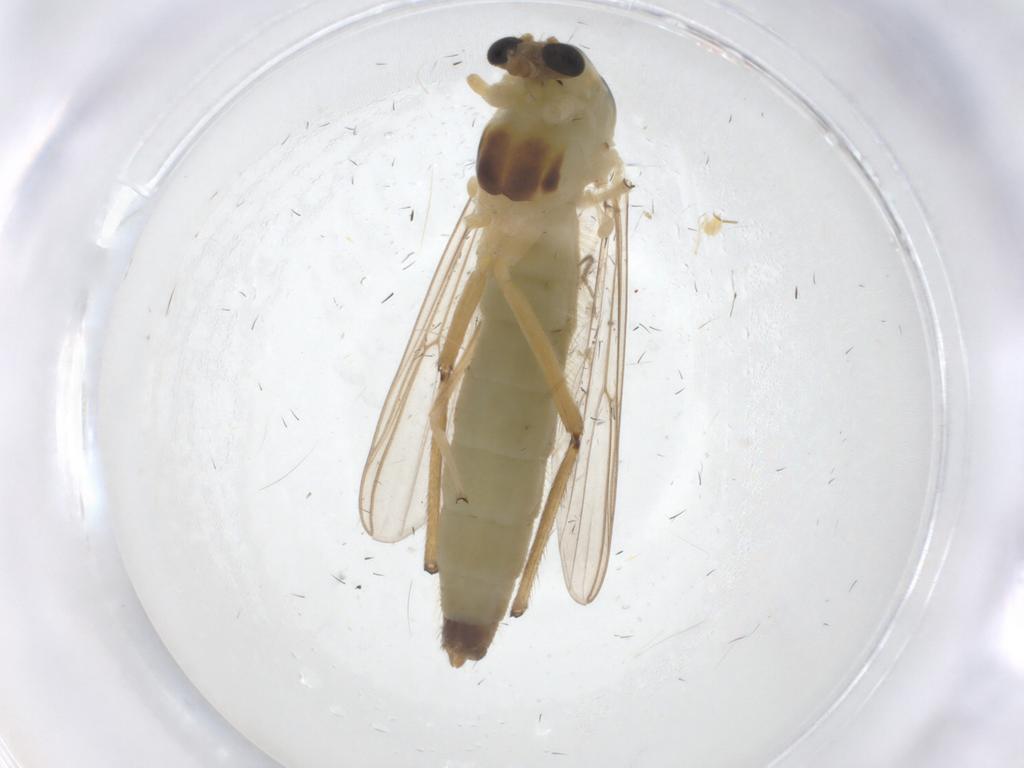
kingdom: Animalia
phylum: Arthropoda
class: Insecta
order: Diptera
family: Chironomidae
